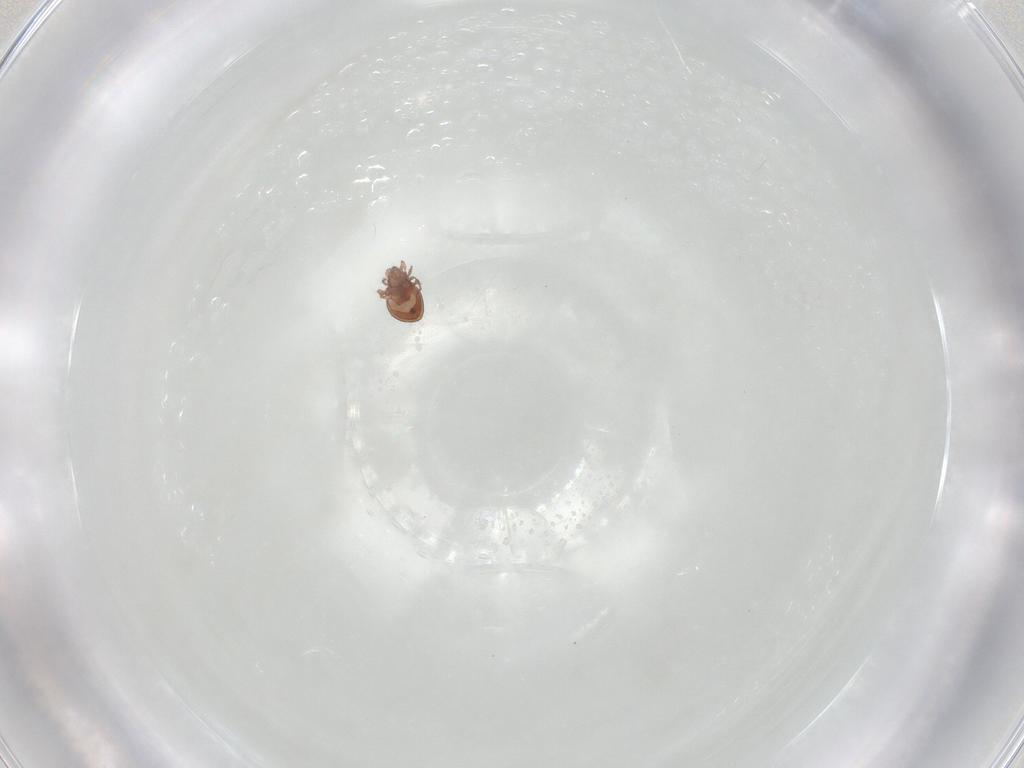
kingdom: Animalia
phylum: Arthropoda
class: Arachnida
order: Sarcoptiformes
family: Oribatulidae
